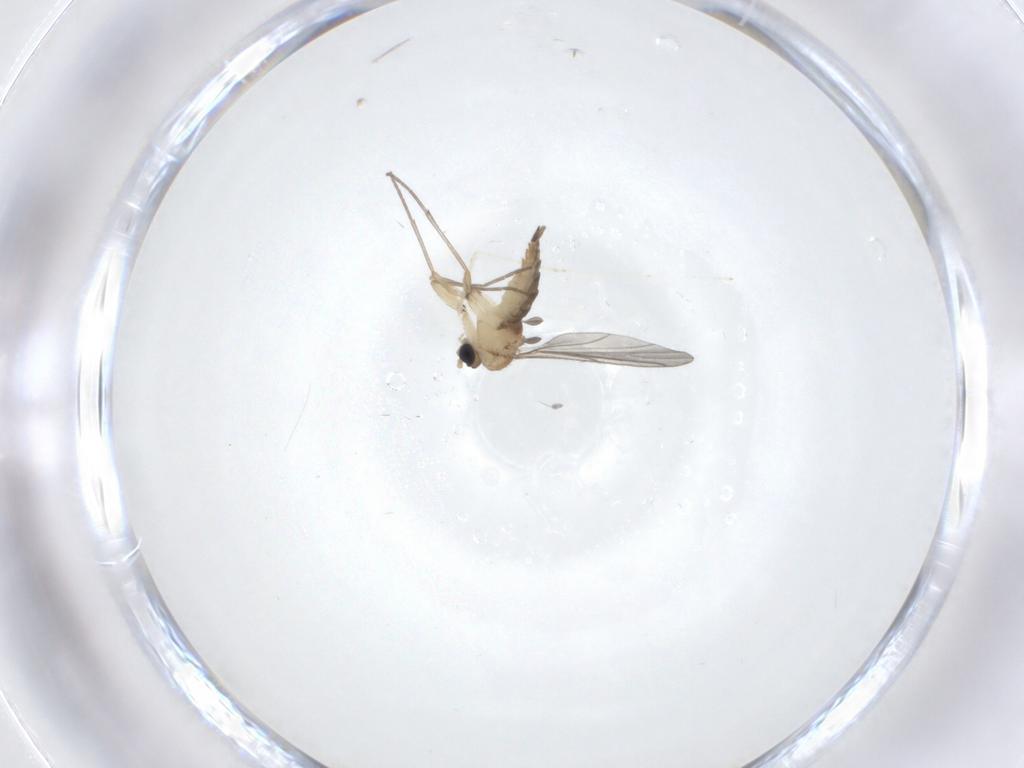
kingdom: Animalia
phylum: Arthropoda
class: Insecta
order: Diptera
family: Sciaridae
